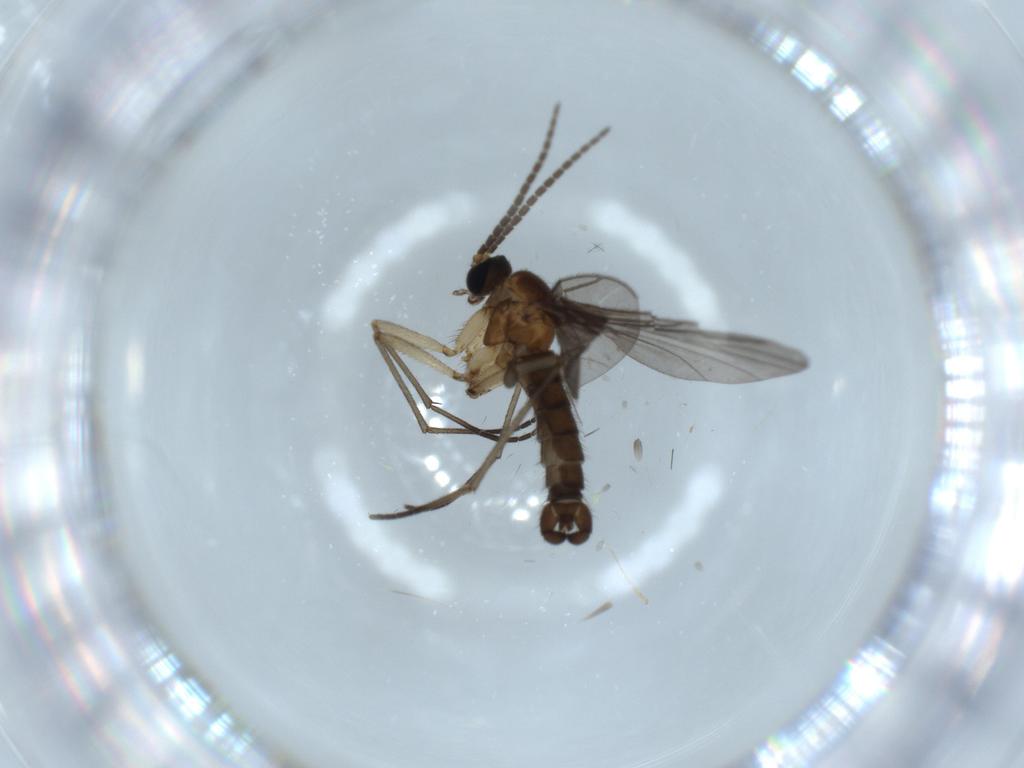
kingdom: Animalia
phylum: Arthropoda
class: Insecta
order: Diptera
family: Sciaridae
